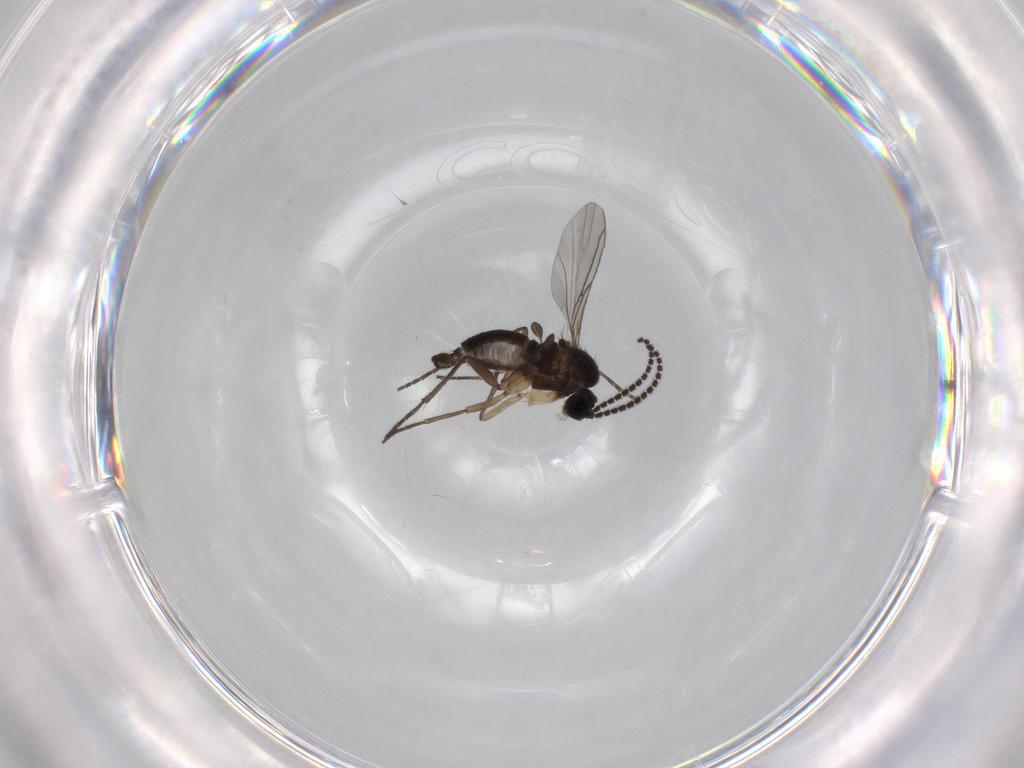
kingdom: Animalia
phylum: Arthropoda
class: Insecta
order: Diptera
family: Sciaridae
